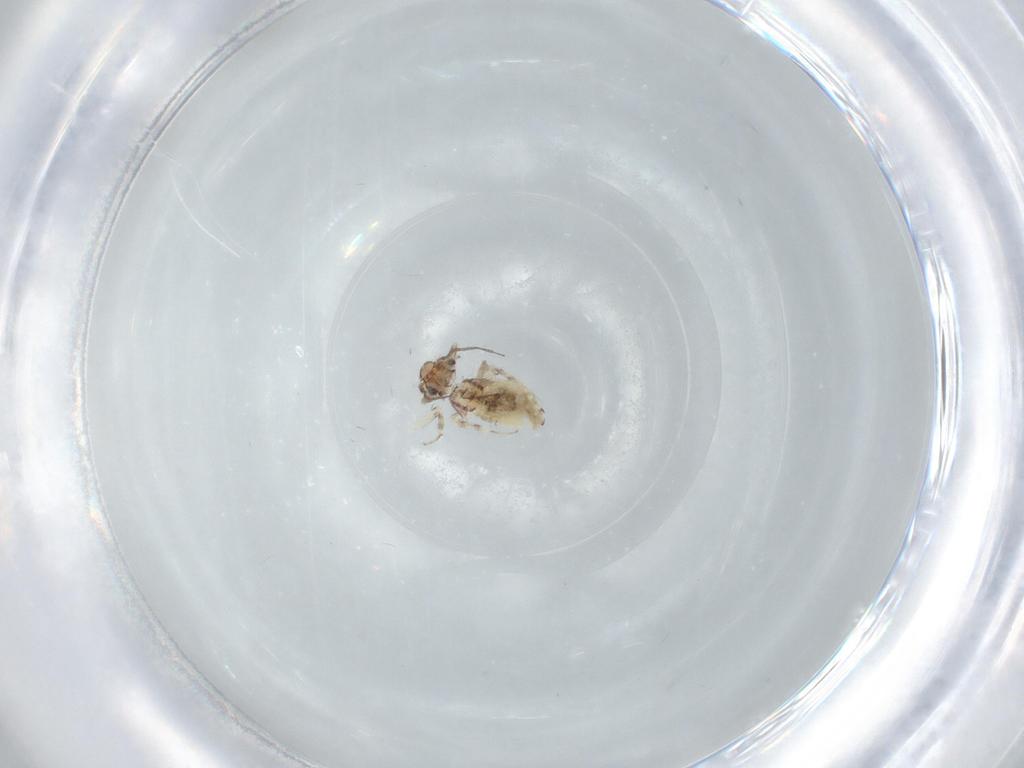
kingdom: Animalia
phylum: Arthropoda
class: Insecta
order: Psocodea
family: Lepidopsocidae
